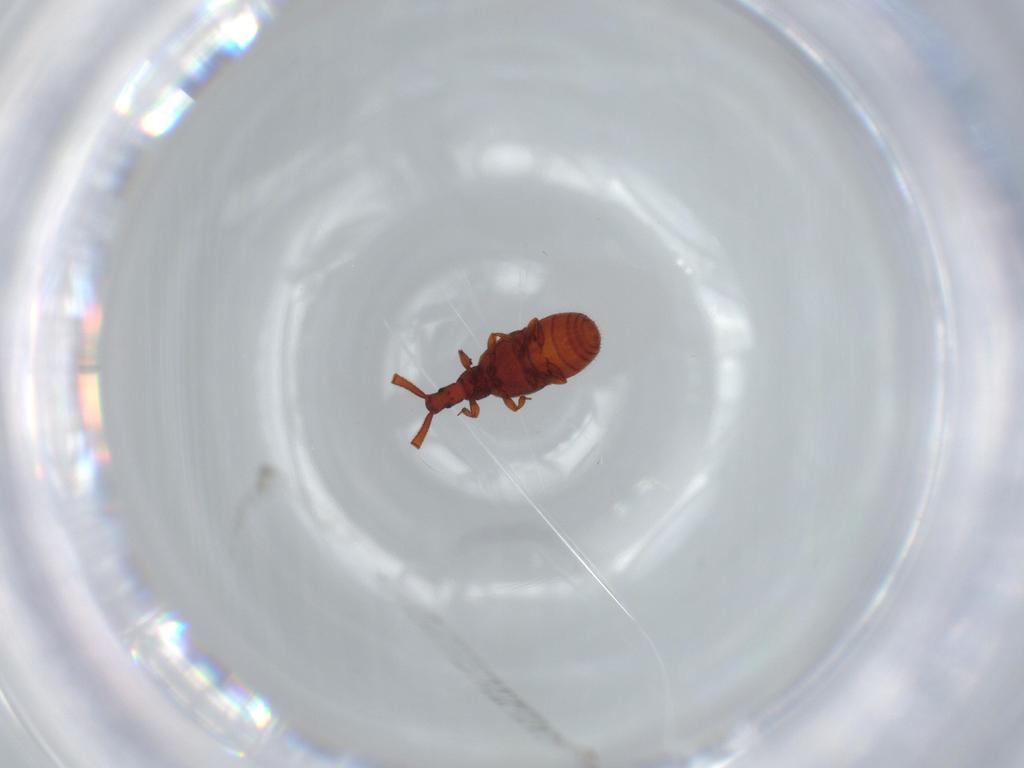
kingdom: Animalia
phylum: Arthropoda
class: Insecta
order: Coleoptera
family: Staphylinidae
